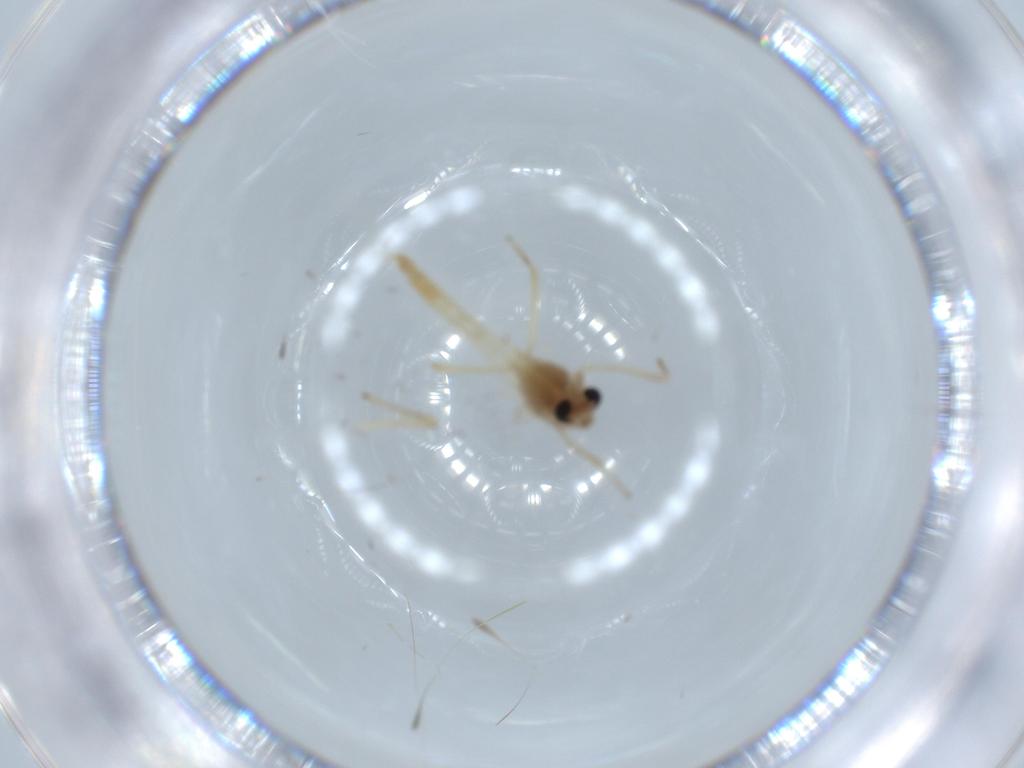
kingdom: Animalia
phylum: Arthropoda
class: Insecta
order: Diptera
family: Chironomidae
